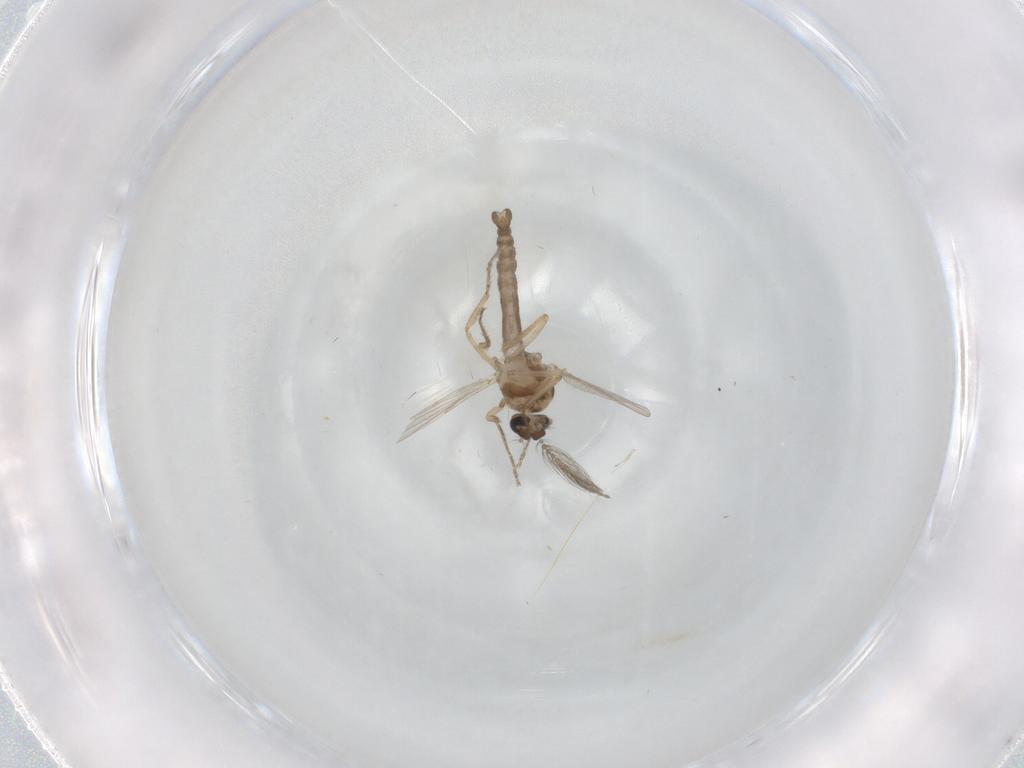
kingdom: Animalia
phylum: Arthropoda
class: Insecta
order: Diptera
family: Ceratopogonidae
